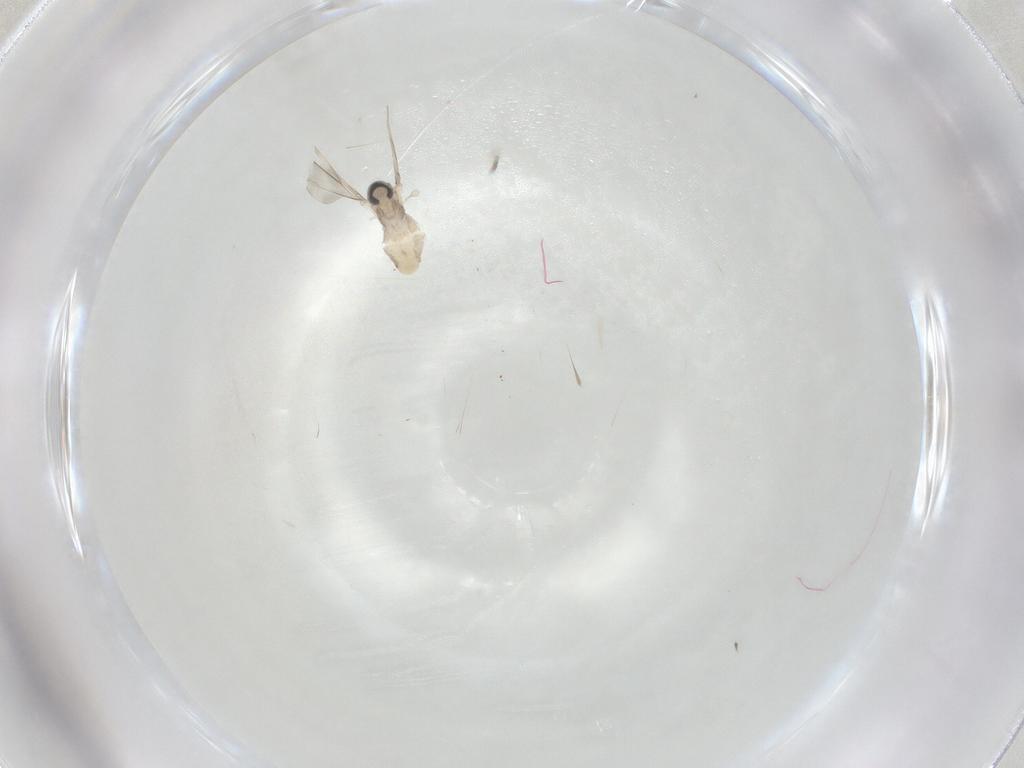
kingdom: Animalia
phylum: Arthropoda
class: Insecta
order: Diptera
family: Cecidomyiidae
